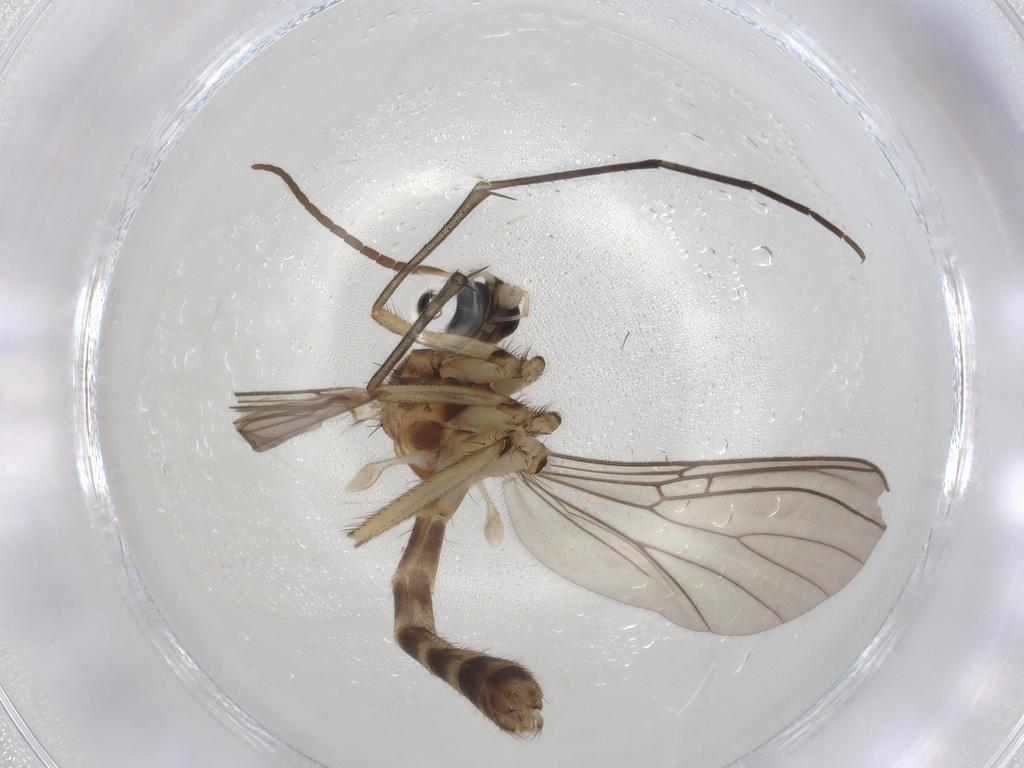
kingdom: Animalia
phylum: Arthropoda
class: Insecta
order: Diptera
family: Mycetophilidae
